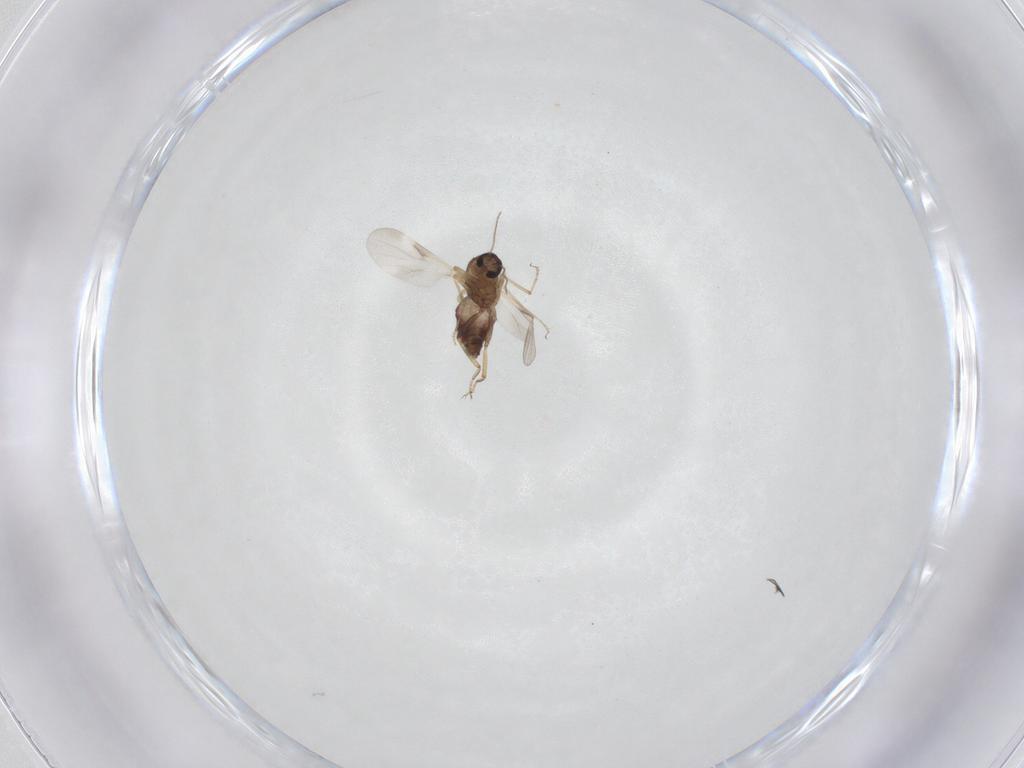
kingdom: Animalia
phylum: Arthropoda
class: Insecta
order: Diptera
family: Ceratopogonidae
